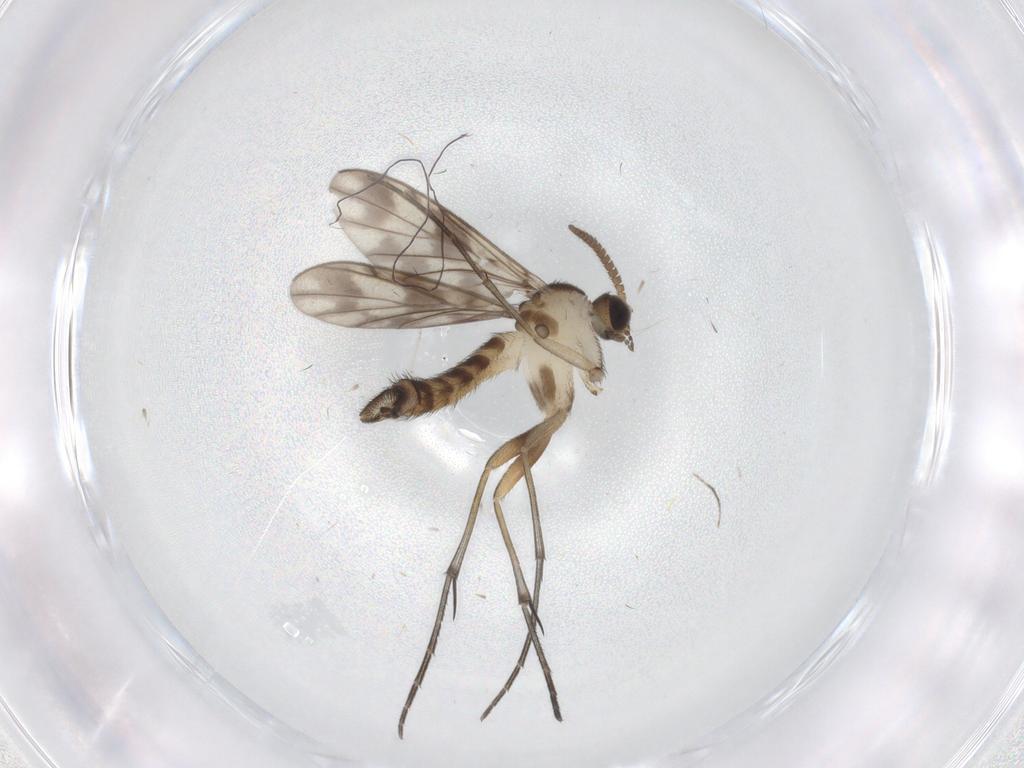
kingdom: Animalia
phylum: Arthropoda
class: Insecta
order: Diptera
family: Keroplatidae
